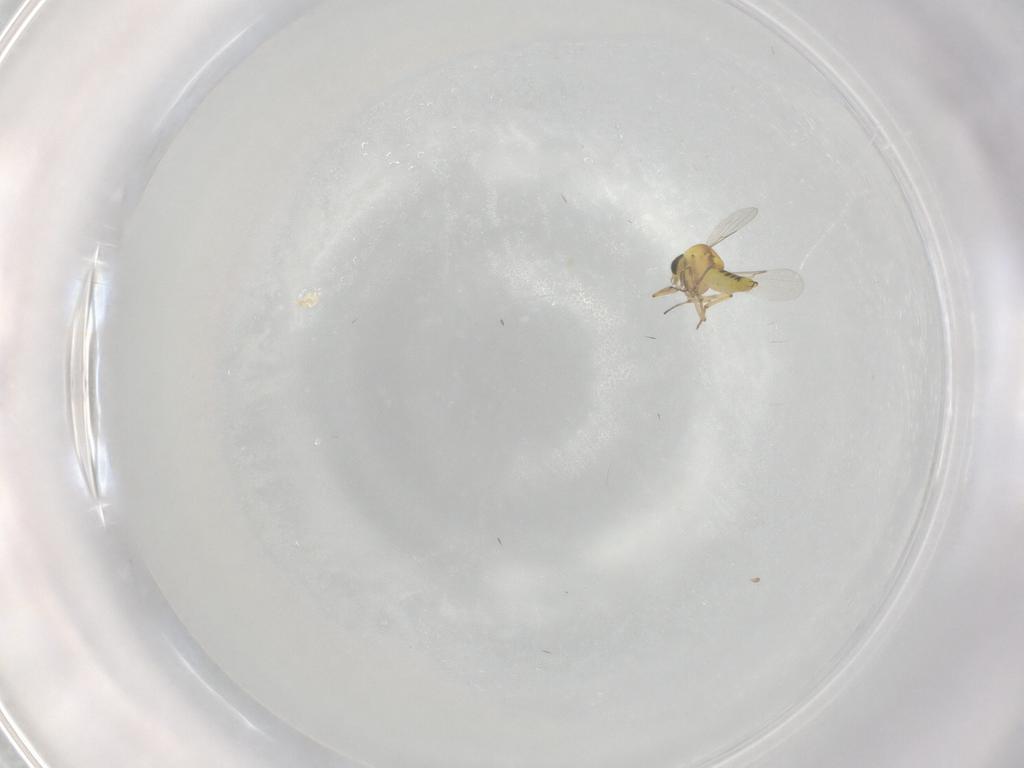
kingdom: Animalia
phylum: Arthropoda
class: Insecta
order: Diptera
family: Ceratopogonidae
